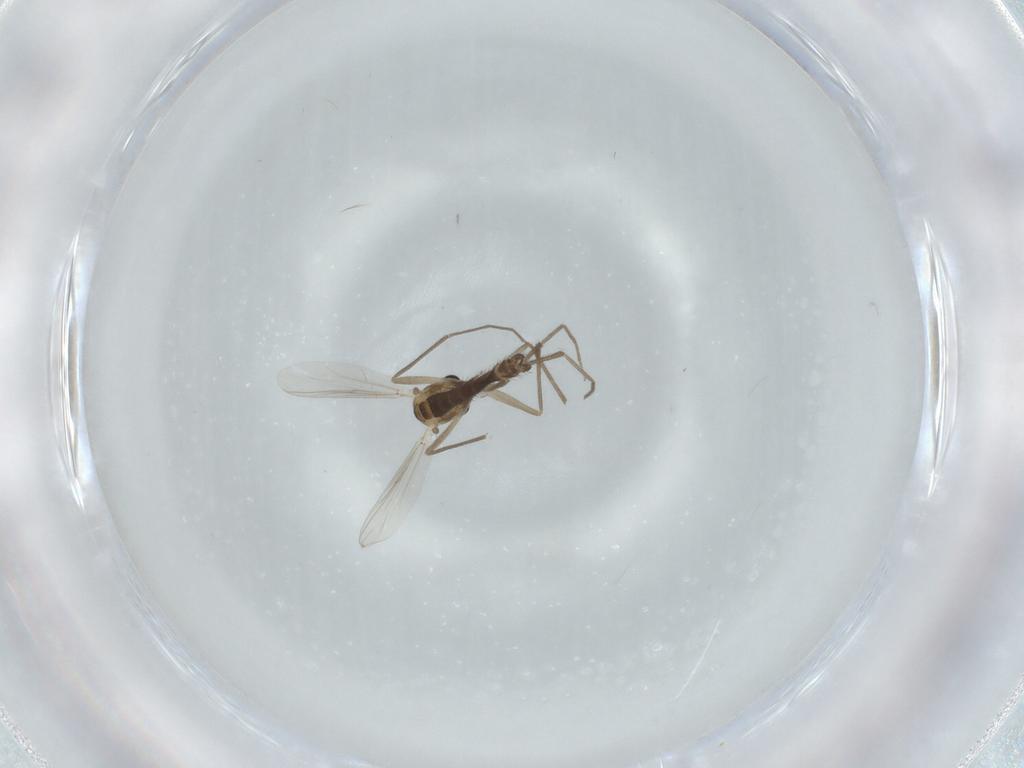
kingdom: Animalia
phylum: Arthropoda
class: Insecta
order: Diptera
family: Chironomidae
